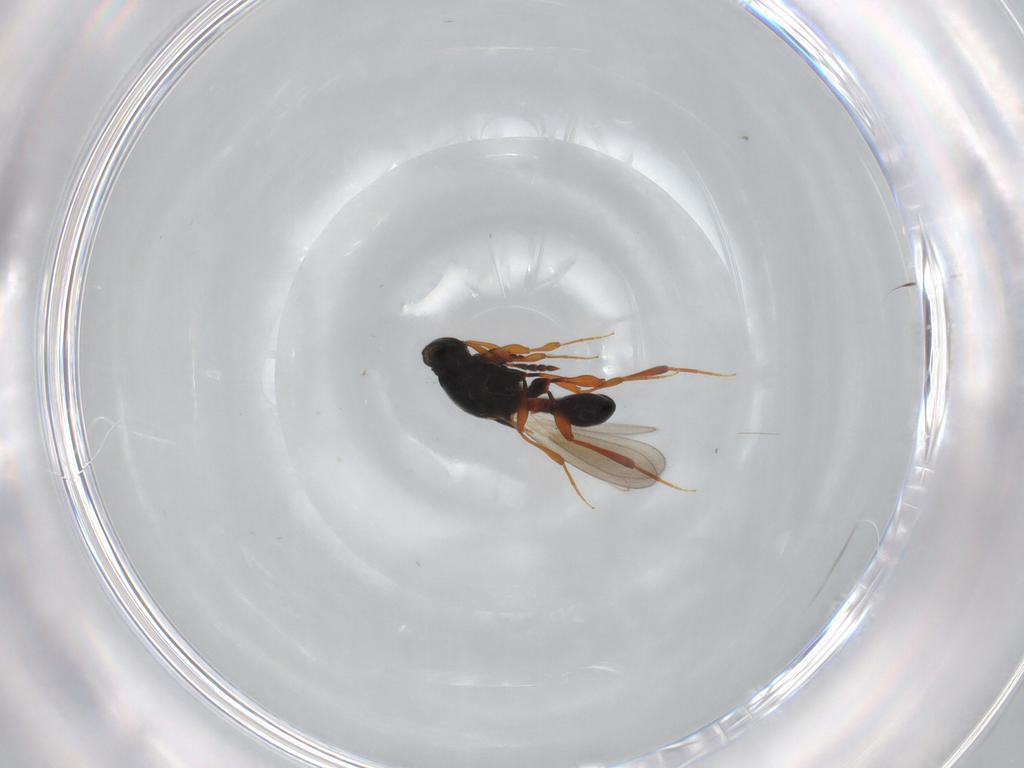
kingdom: Animalia
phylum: Arthropoda
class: Insecta
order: Hymenoptera
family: Platygastridae
